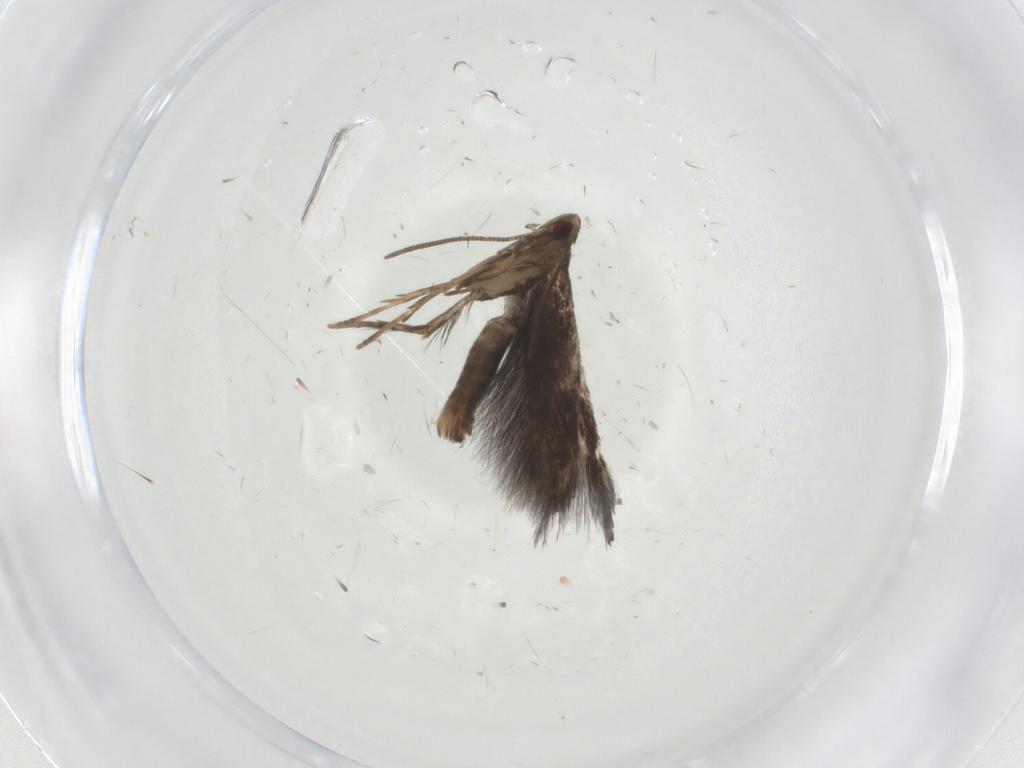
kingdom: Animalia
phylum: Arthropoda
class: Insecta
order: Lepidoptera
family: Erebidae
